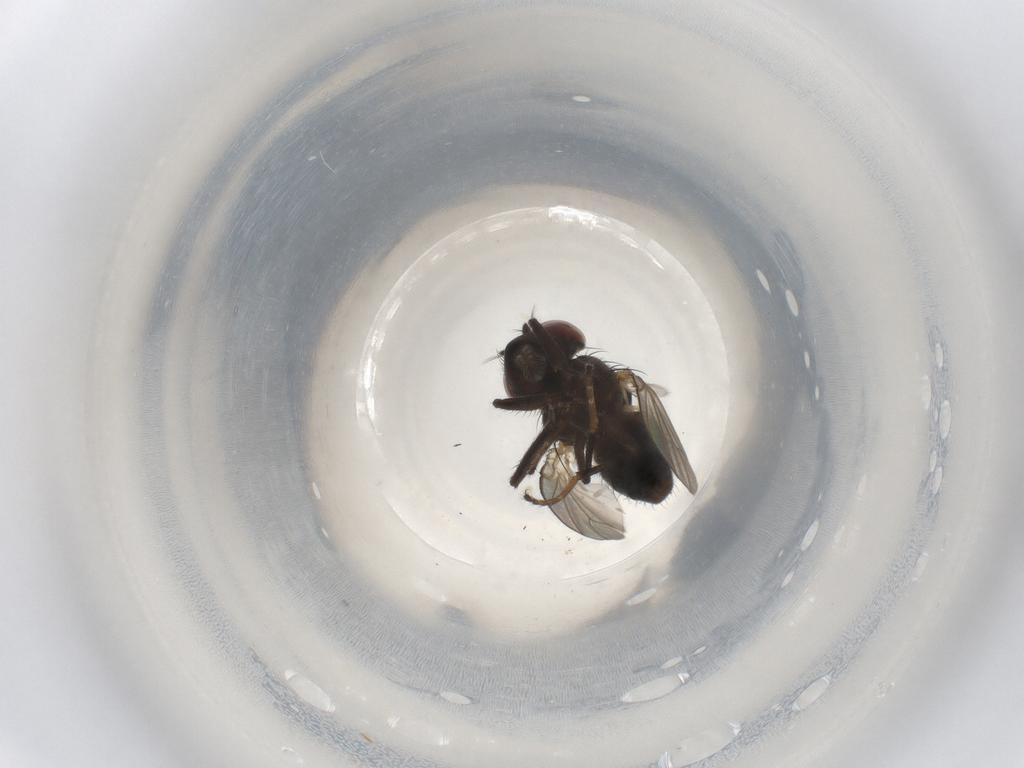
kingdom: Animalia
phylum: Arthropoda
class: Insecta
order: Diptera
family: Ephydridae
